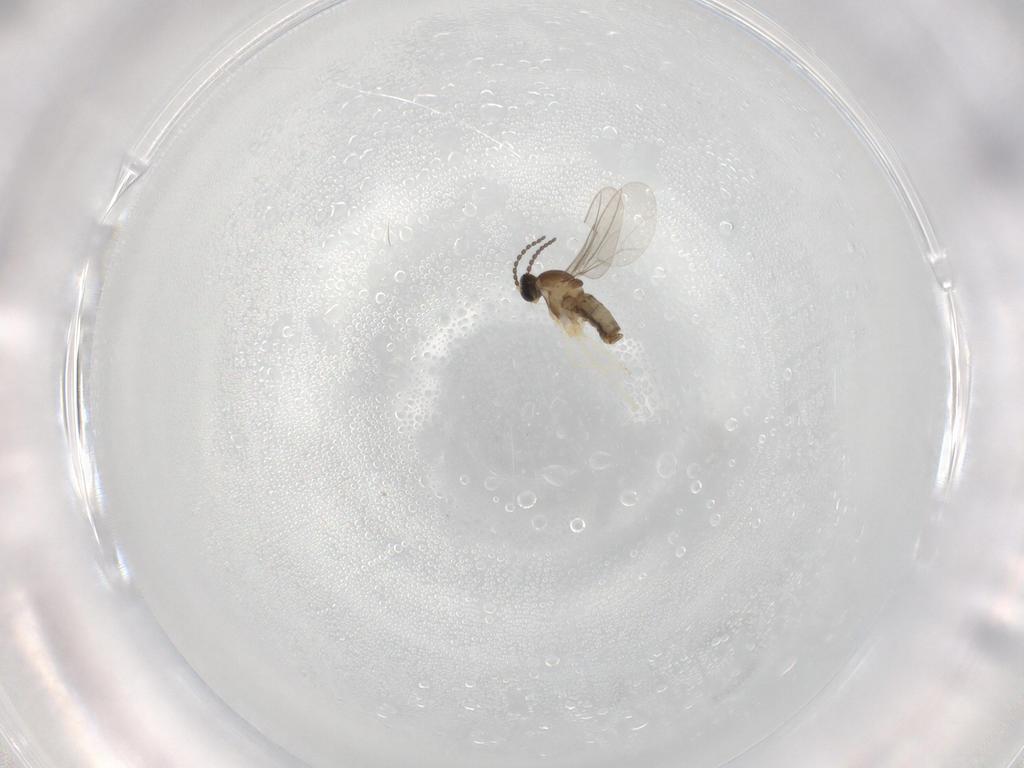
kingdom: Animalia
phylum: Arthropoda
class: Insecta
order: Diptera
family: Cecidomyiidae
